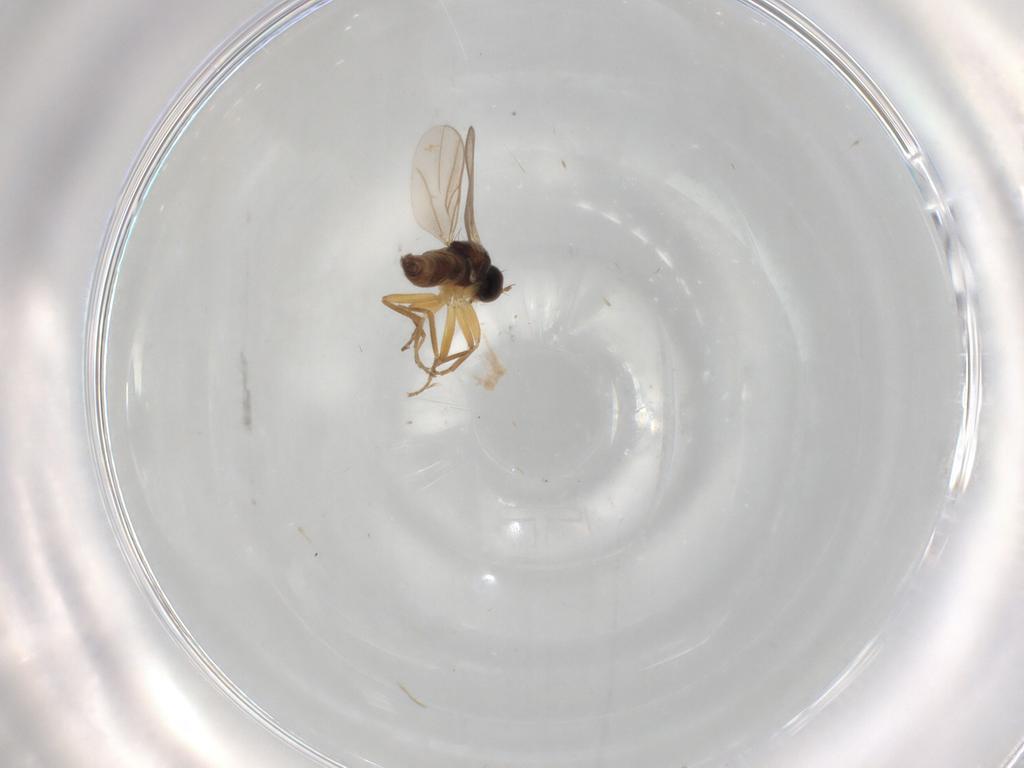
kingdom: Animalia
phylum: Arthropoda
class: Insecta
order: Diptera
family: Hybotidae
